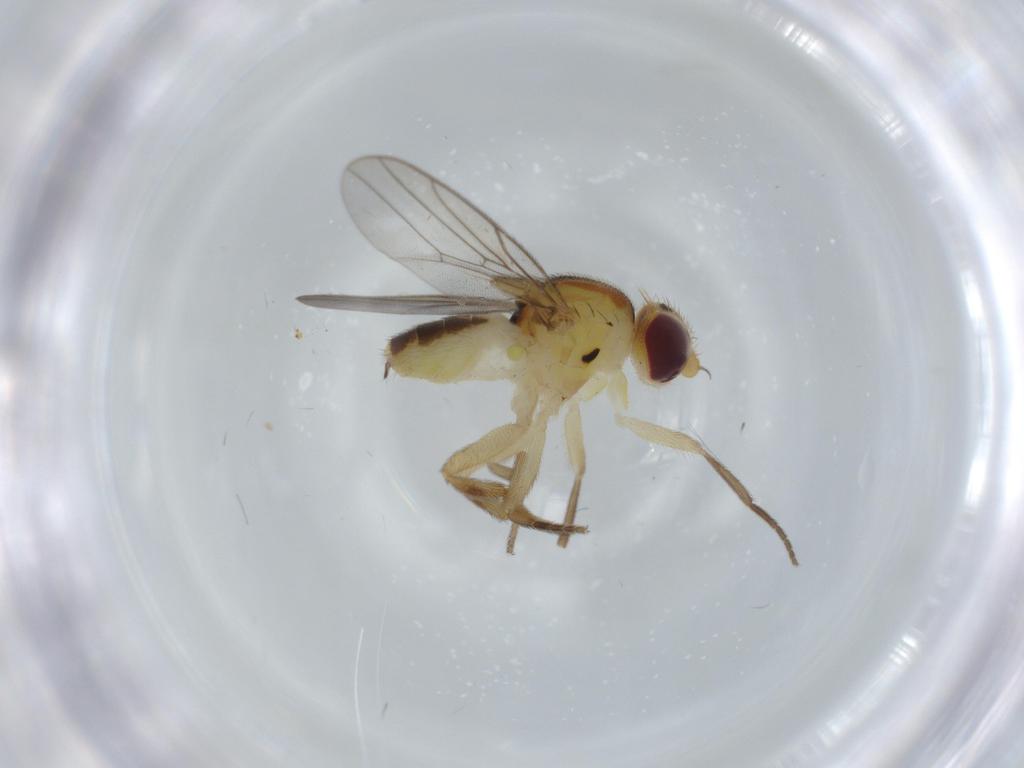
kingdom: Animalia
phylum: Arthropoda
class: Insecta
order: Diptera
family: Chloropidae
